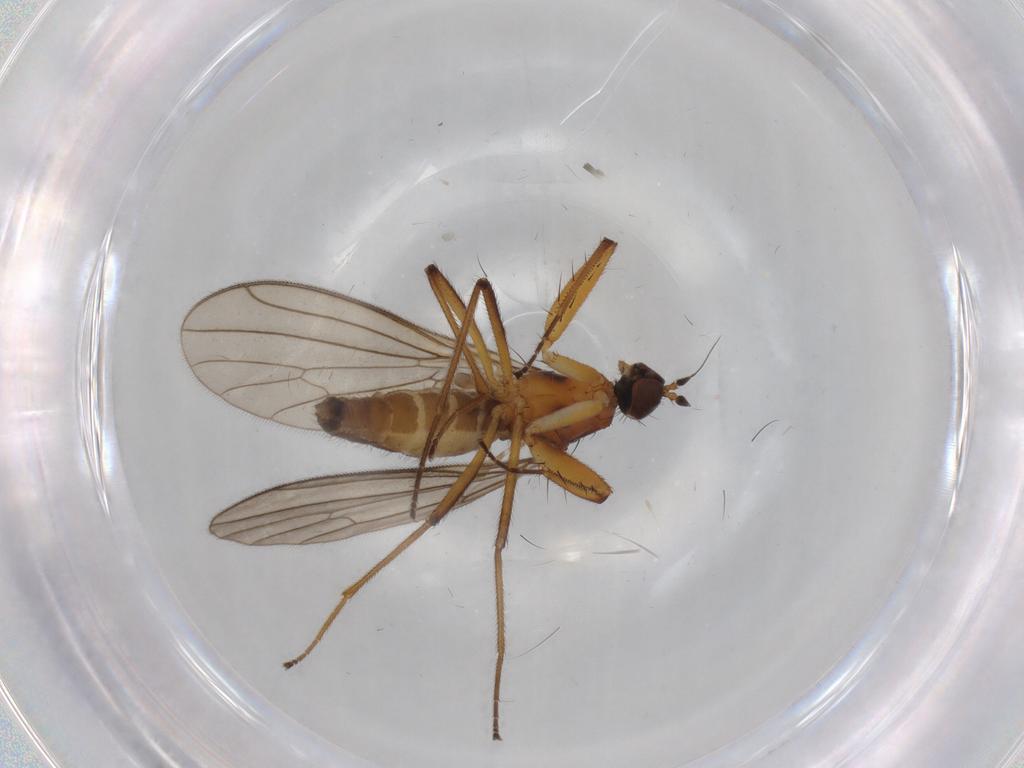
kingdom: Animalia
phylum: Arthropoda
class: Insecta
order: Diptera
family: Empididae
